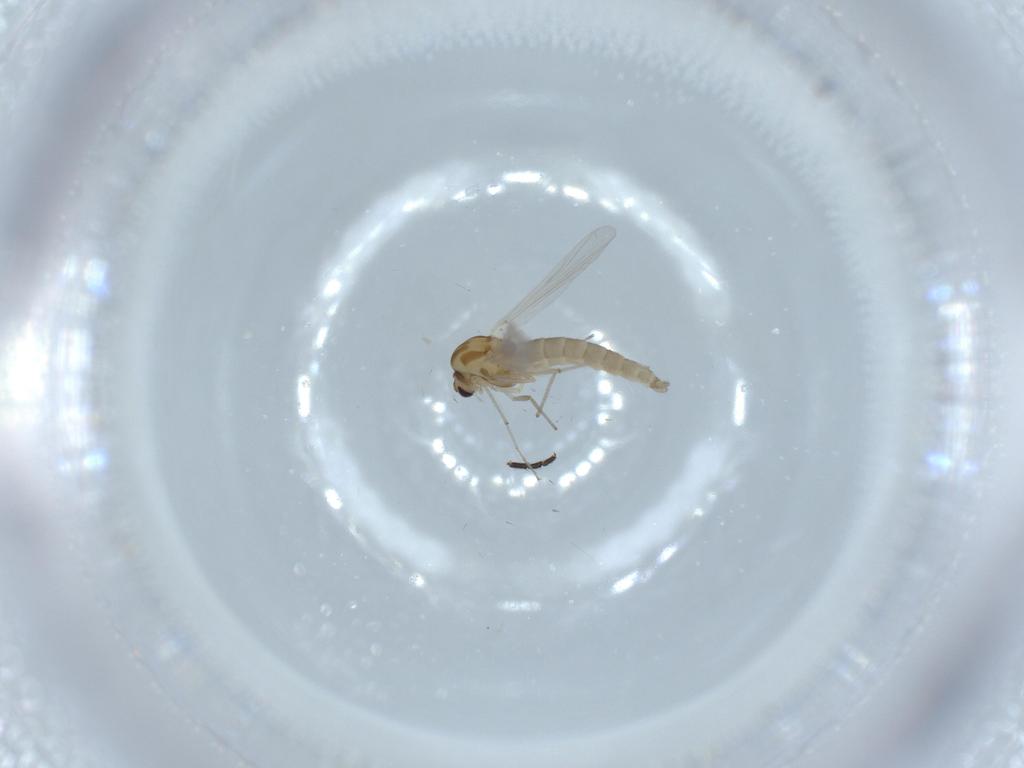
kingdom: Animalia
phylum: Arthropoda
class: Insecta
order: Diptera
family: Chironomidae
